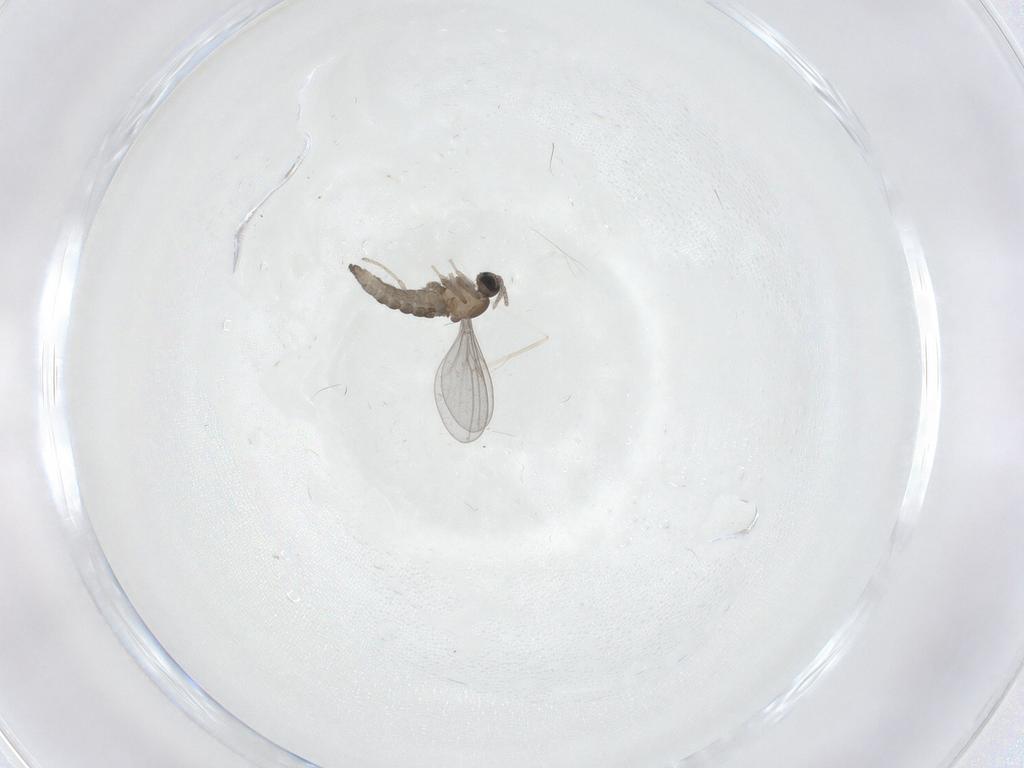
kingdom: Animalia
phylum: Arthropoda
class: Insecta
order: Diptera
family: Cecidomyiidae
